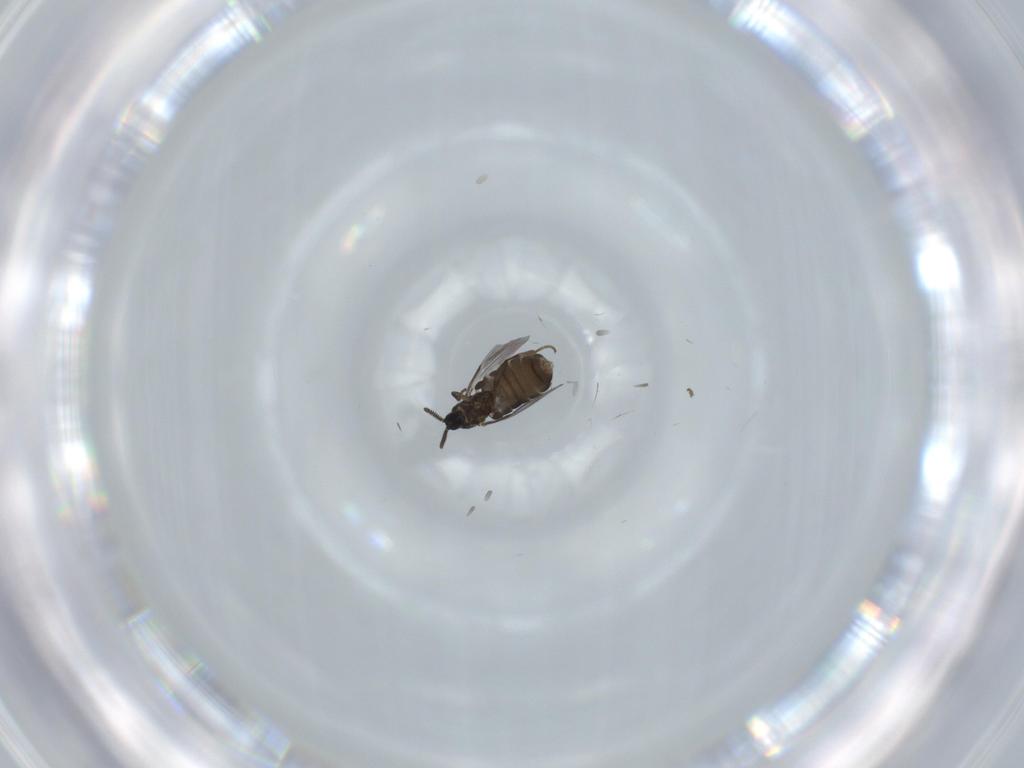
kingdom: Animalia
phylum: Arthropoda
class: Insecta
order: Diptera
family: Scatopsidae
